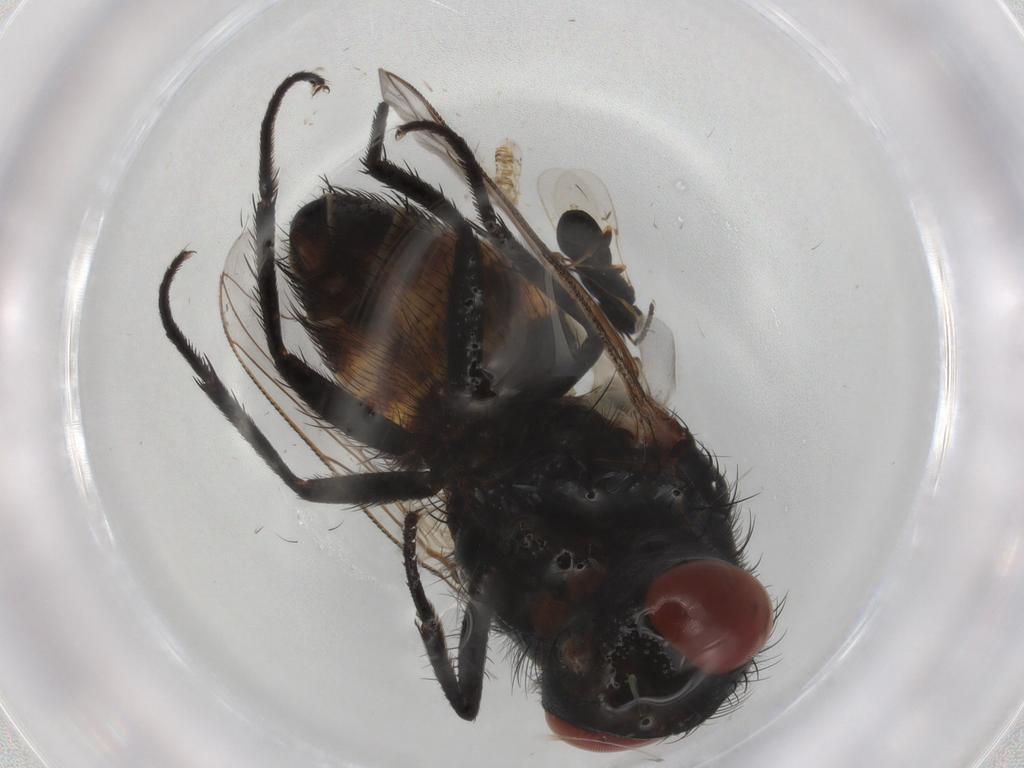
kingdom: Animalia
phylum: Arthropoda
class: Insecta
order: Diptera
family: Sarcophagidae
